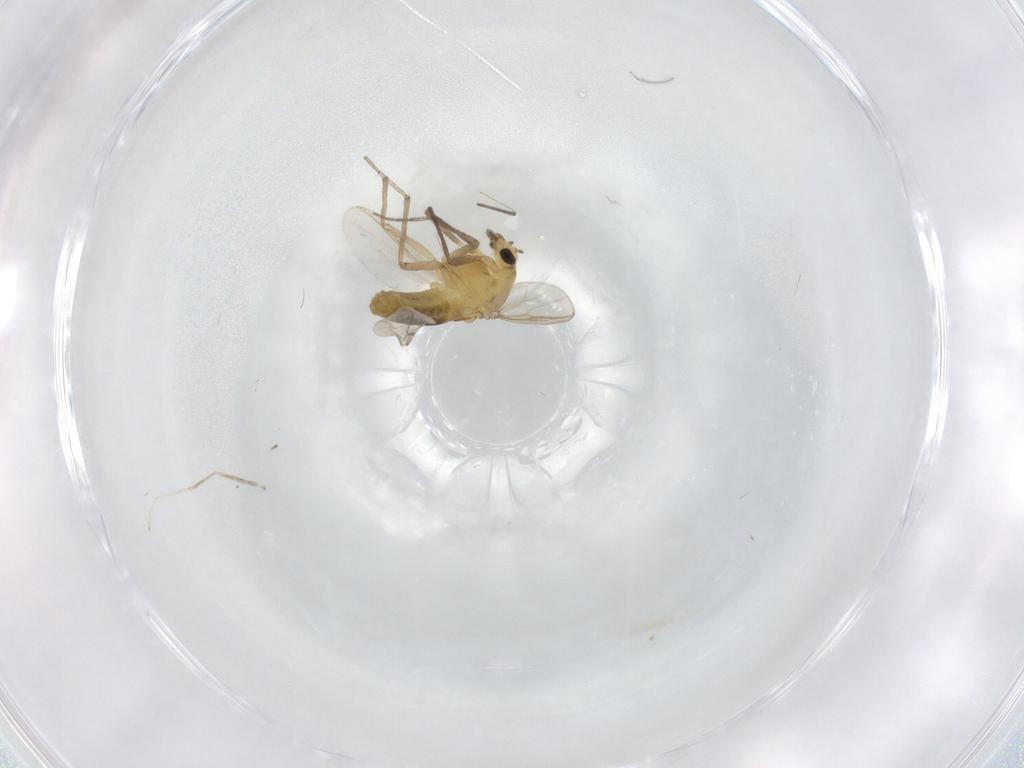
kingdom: Animalia
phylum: Arthropoda
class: Insecta
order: Diptera
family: Chironomidae
